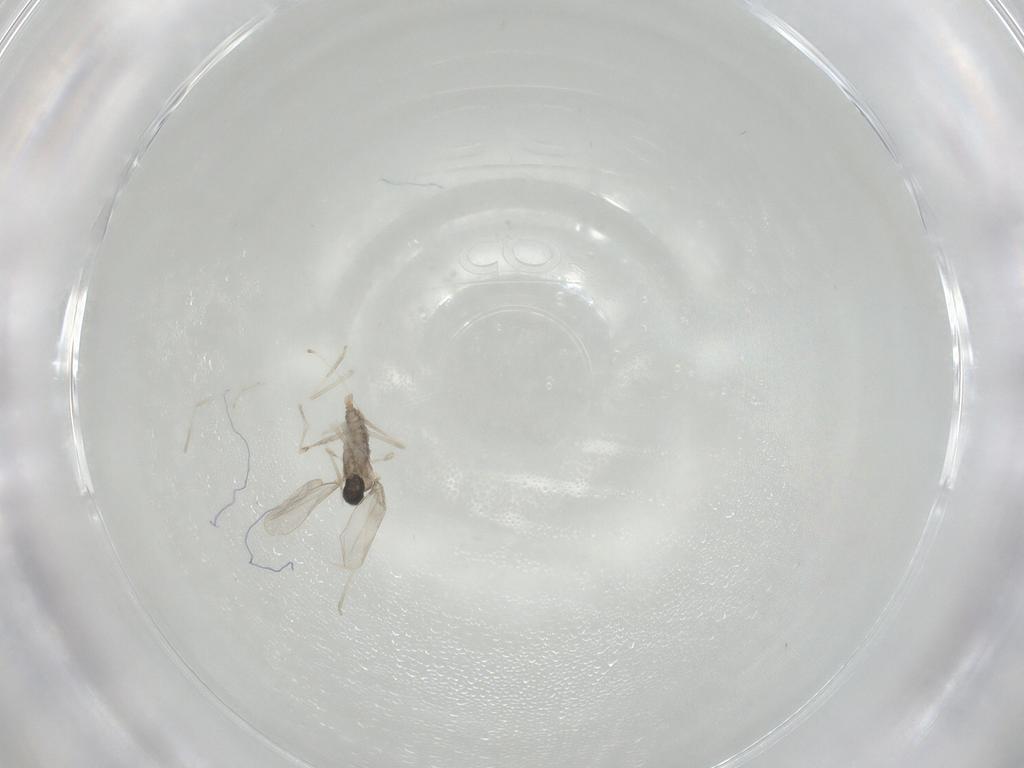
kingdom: Animalia
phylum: Arthropoda
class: Insecta
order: Diptera
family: Cecidomyiidae
